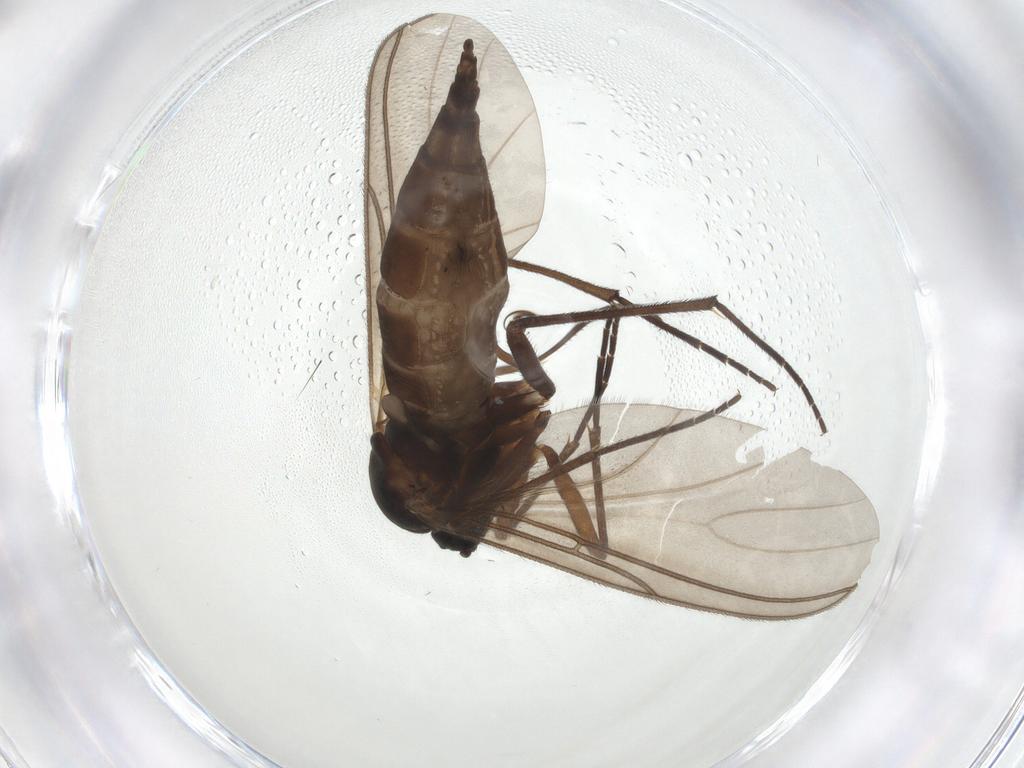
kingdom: Animalia
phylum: Arthropoda
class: Insecta
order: Diptera
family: Sciaridae
